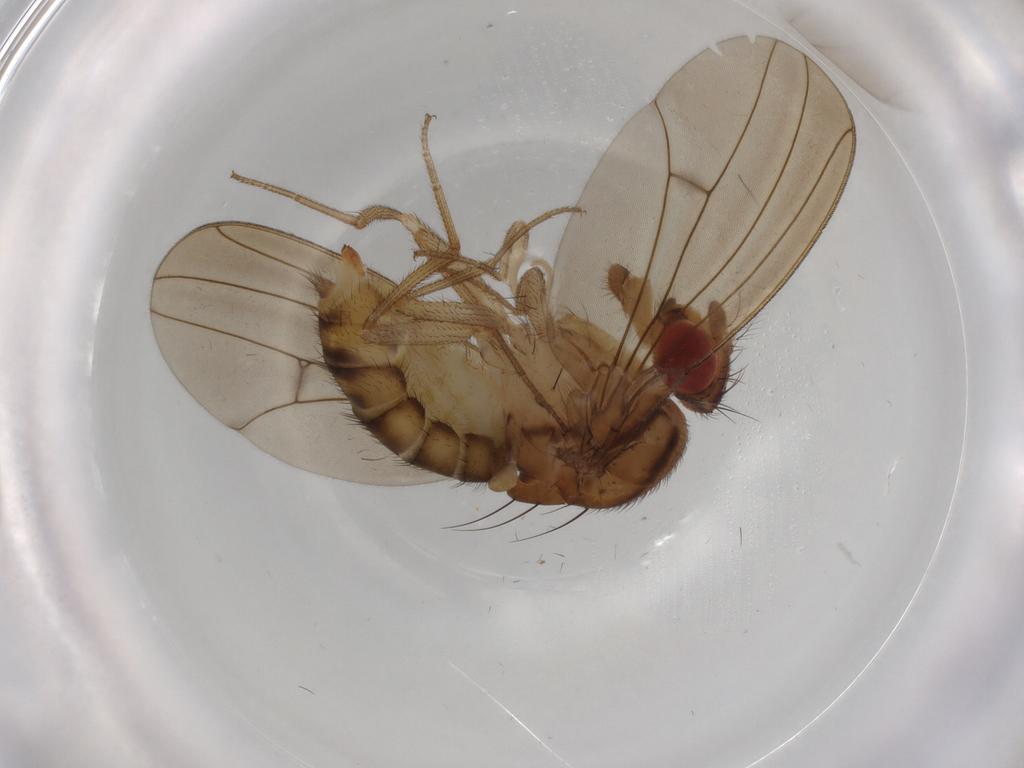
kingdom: Animalia
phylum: Arthropoda
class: Insecta
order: Diptera
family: Drosophilidae
